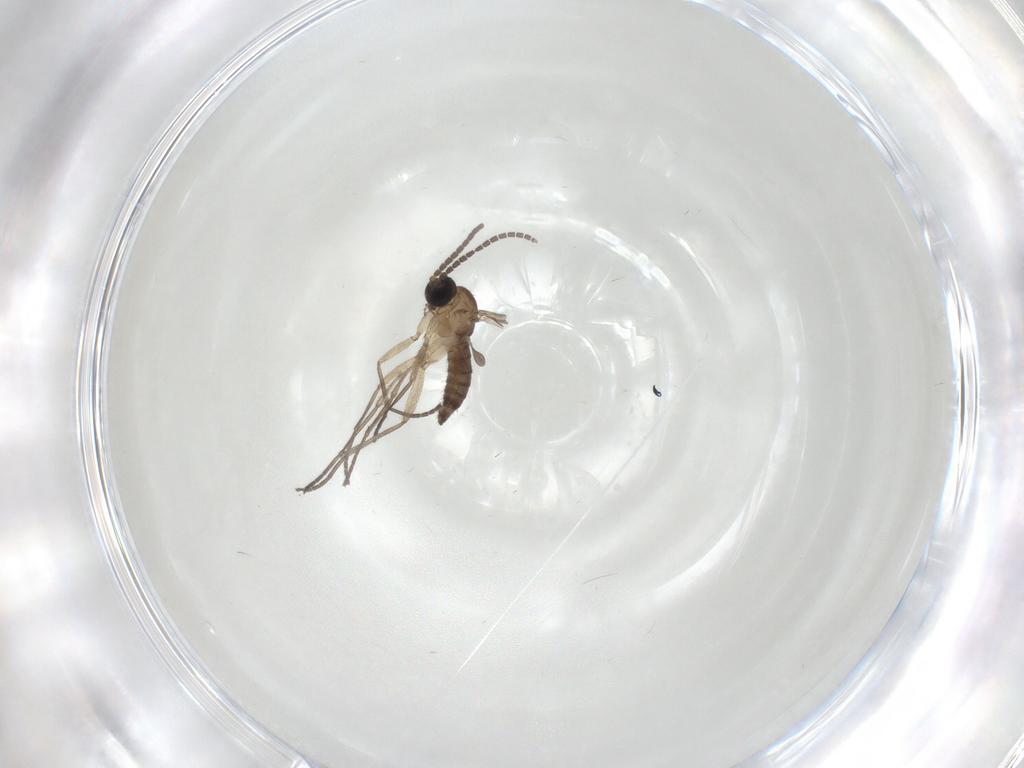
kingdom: Animalia
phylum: Arthropoda
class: Insecta
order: Diptera
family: Sciaridae
